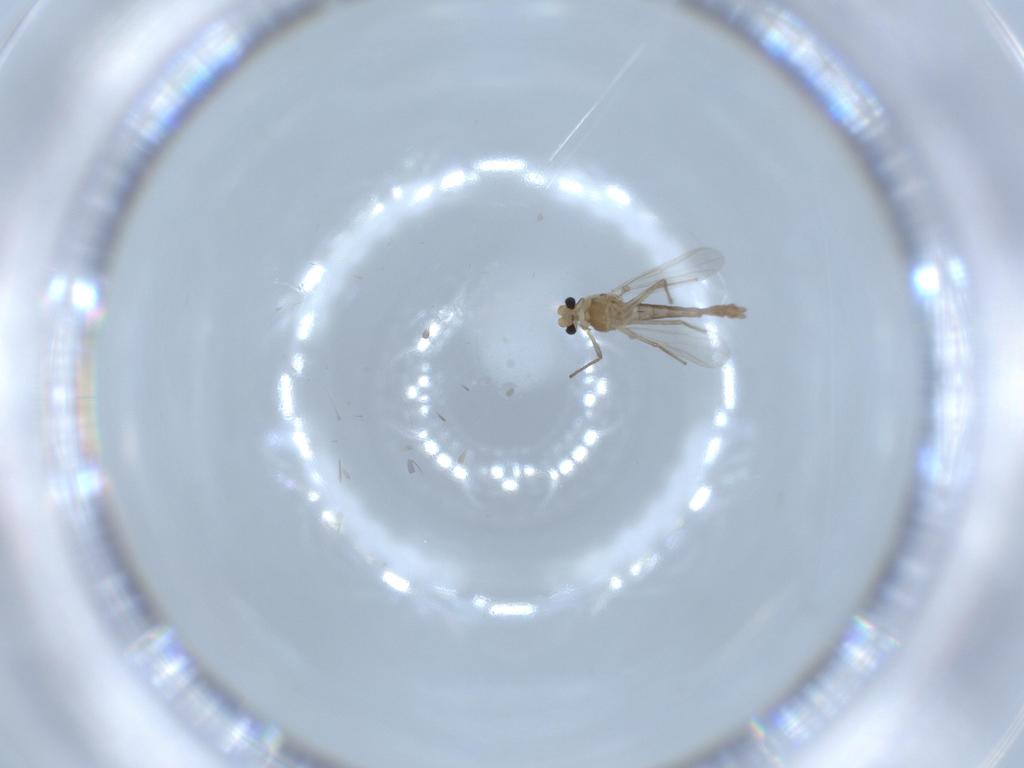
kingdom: Animalia
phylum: Arthropoda
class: Insecta
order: Diptera
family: Chironomidae
